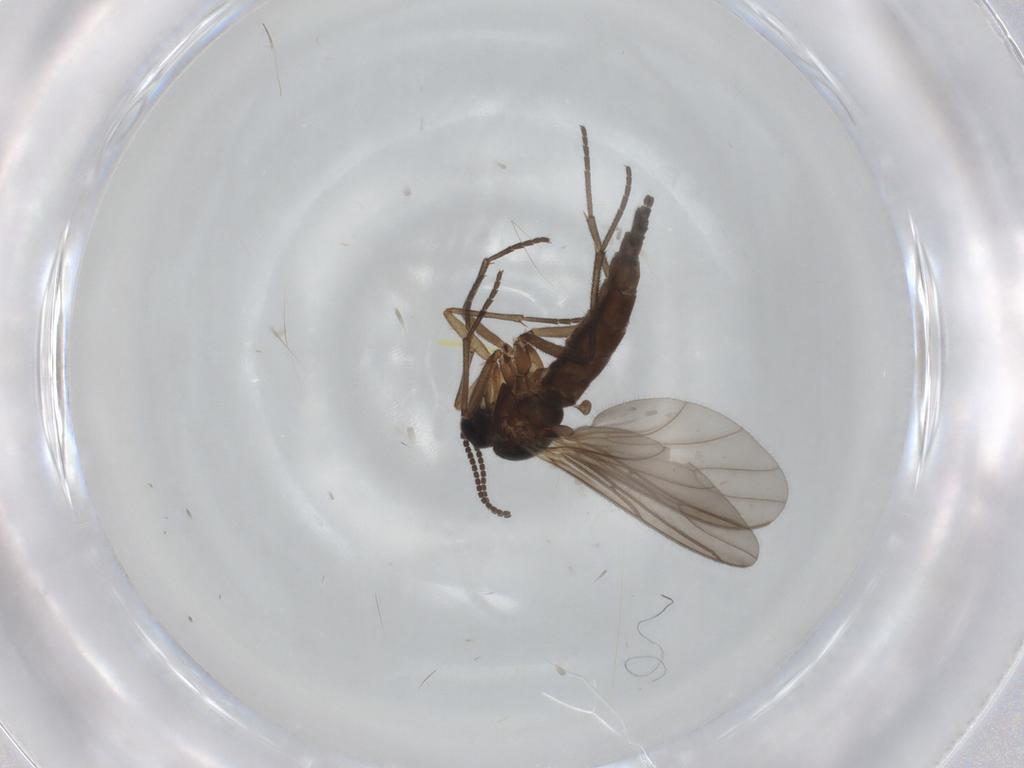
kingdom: Animalia
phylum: Arthropoda
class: Insecta
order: Diptera
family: Sciaridae
